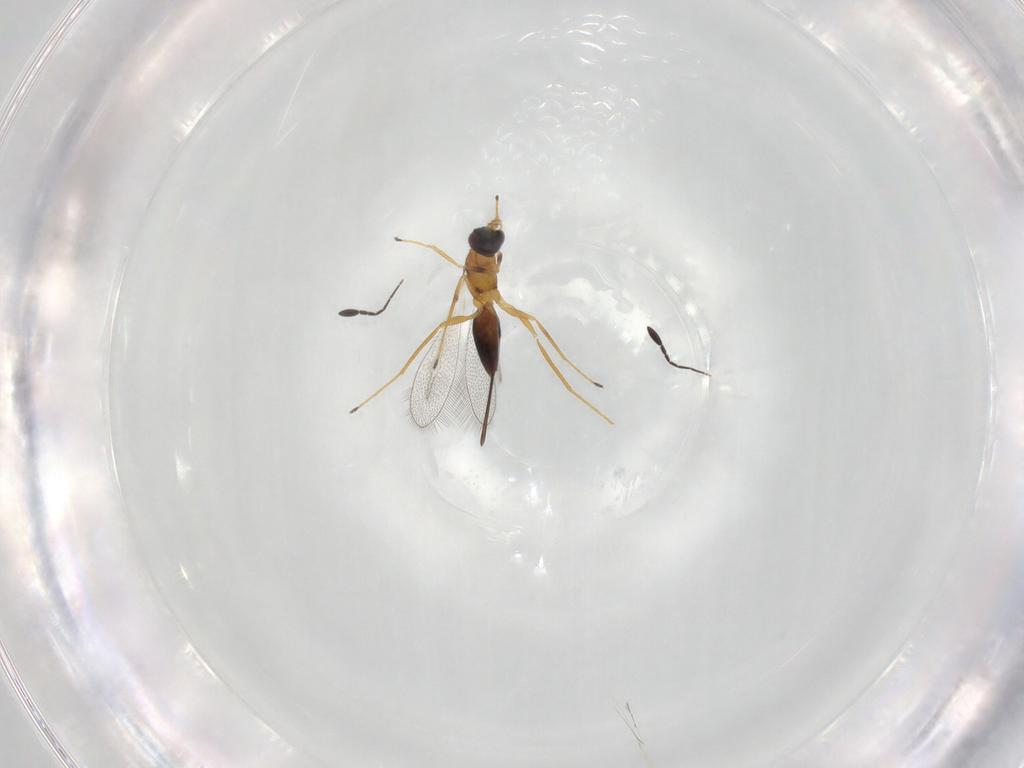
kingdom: Animalia
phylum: Arthropoda
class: Insecta
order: Hymenoptera
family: Mymaridae
